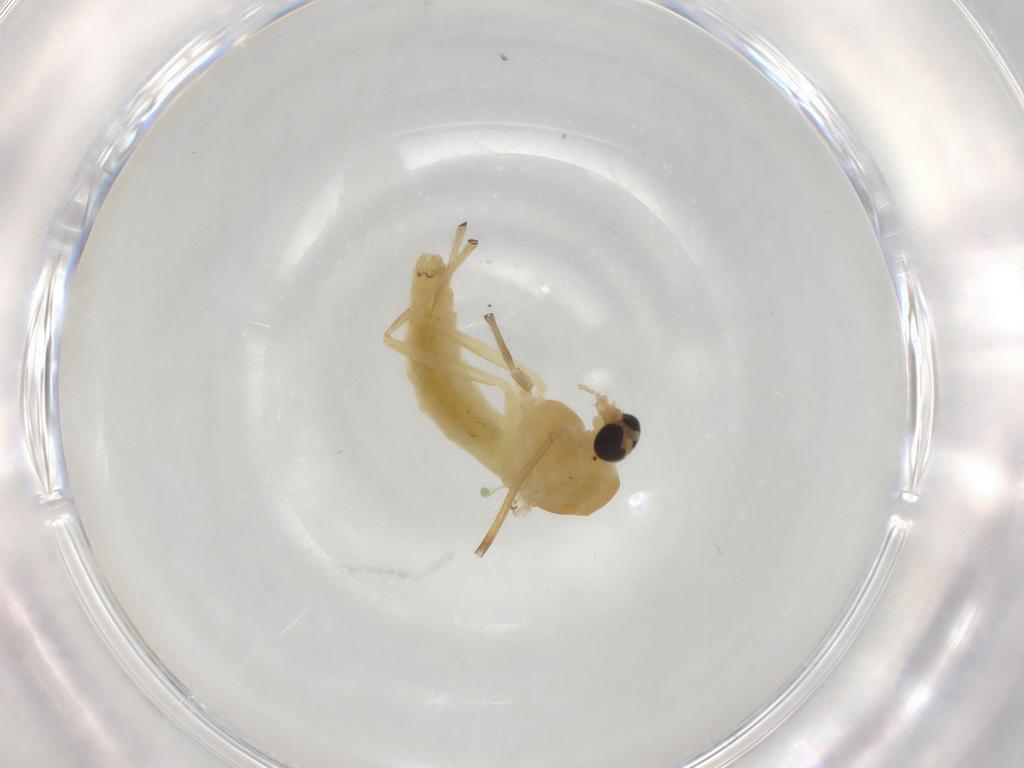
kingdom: Animalia
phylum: Arthropoda
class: Insecta
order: Diptera
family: Chironomidae
